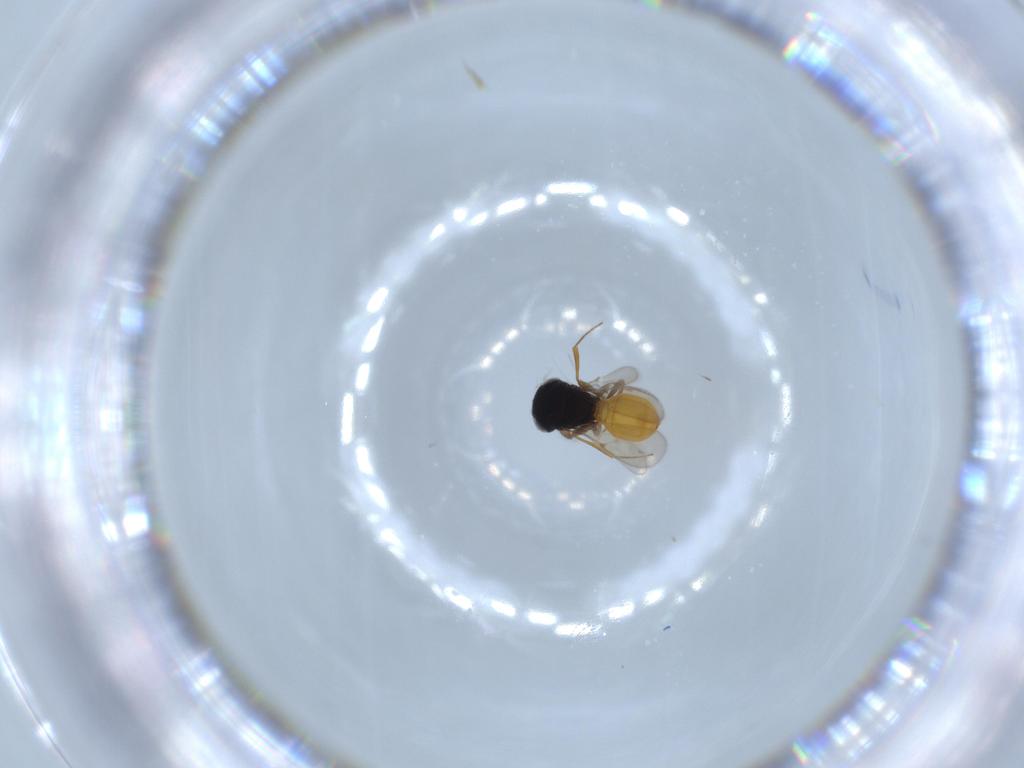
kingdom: Animalia
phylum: Arthropoda
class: Insecta
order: Hymenoptera
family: Scelionidae
